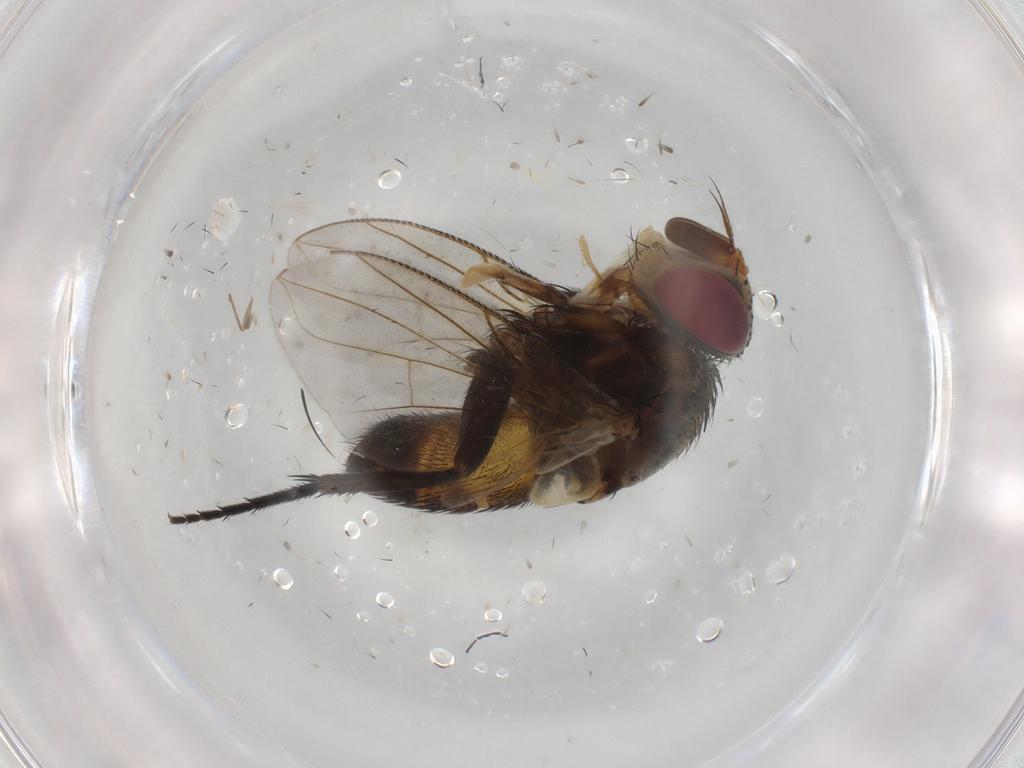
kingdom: Animalia
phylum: Arthropoda
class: Insecta
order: Diptera
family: Chironomidae
